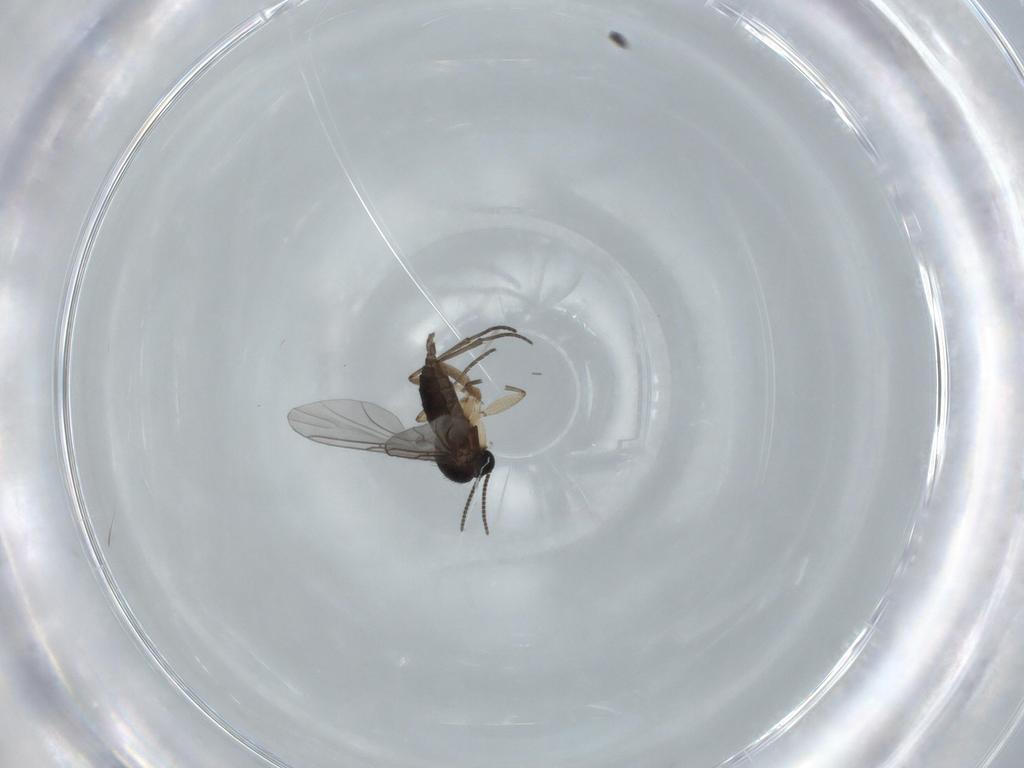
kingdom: Animalia
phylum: Arthropoda
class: Insecta
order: Diptera
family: Sciaridae
